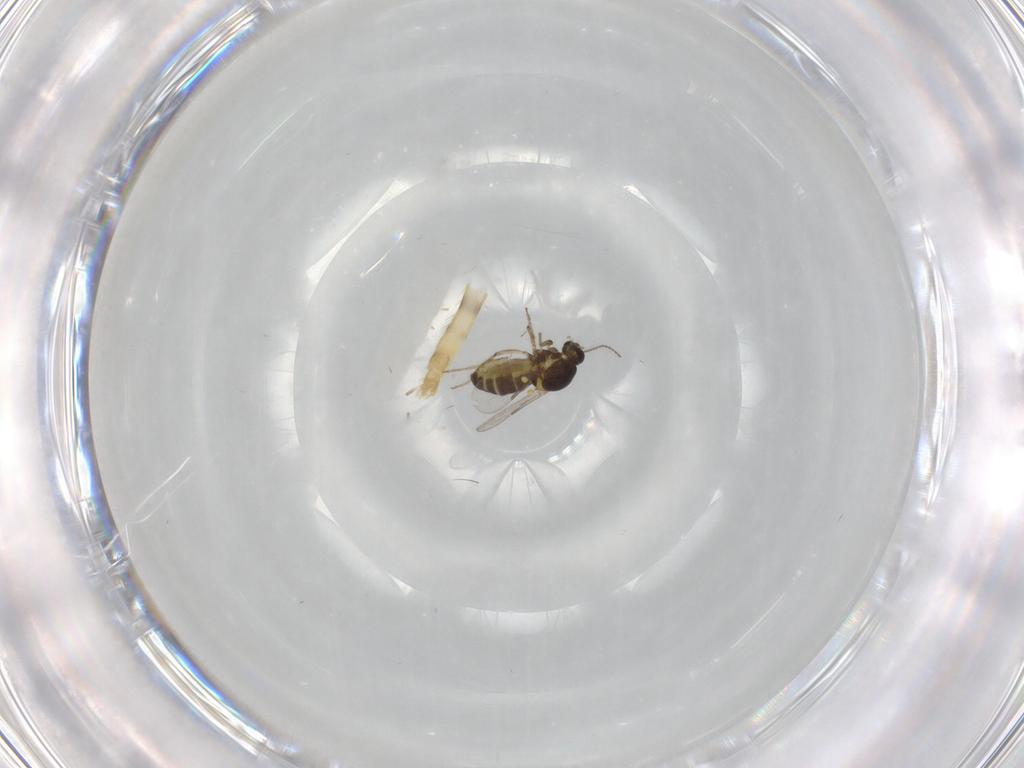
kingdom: Animalia
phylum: Arthropoda
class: Insecta
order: Diptera
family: Ceratopogonidae
